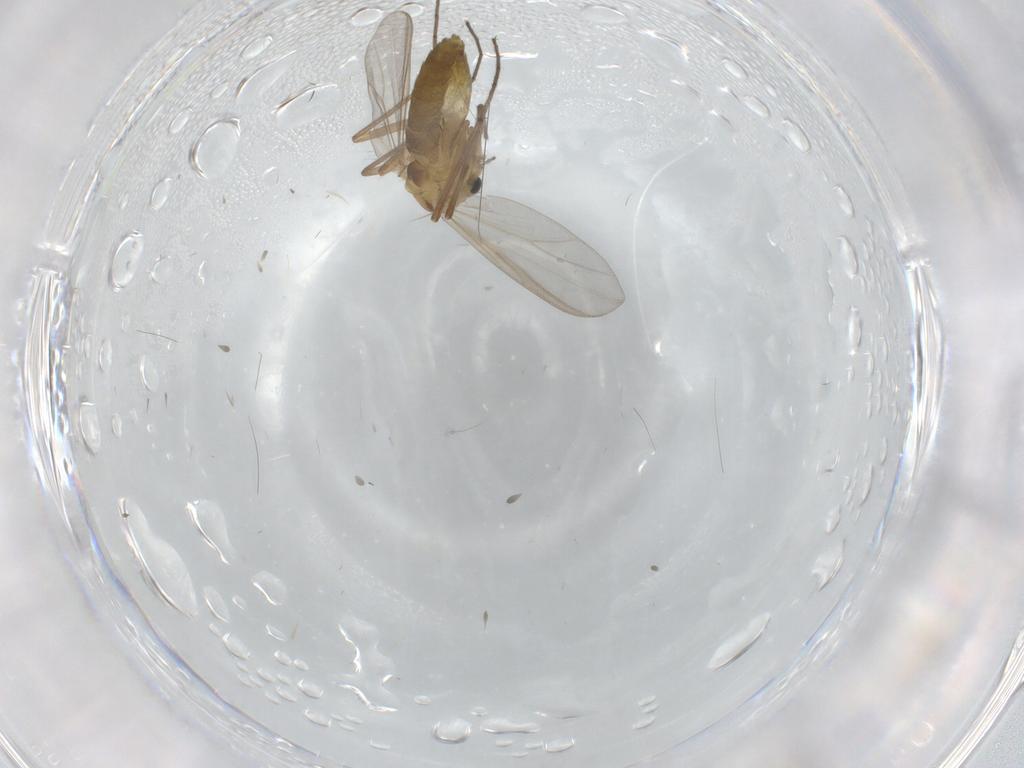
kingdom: Animalia
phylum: Arthropoda
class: Insecta
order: Diptera
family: Chironomidae
